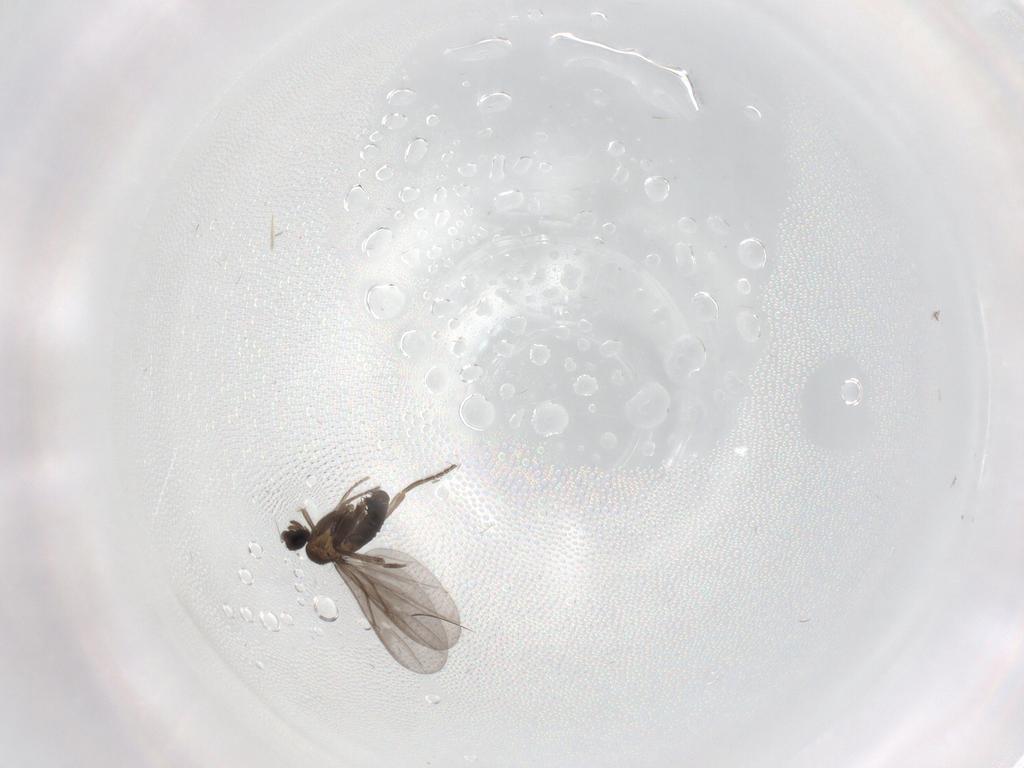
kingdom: Animalia
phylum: Arthropoda
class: Insecta
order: Diptera
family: Chironomidae
